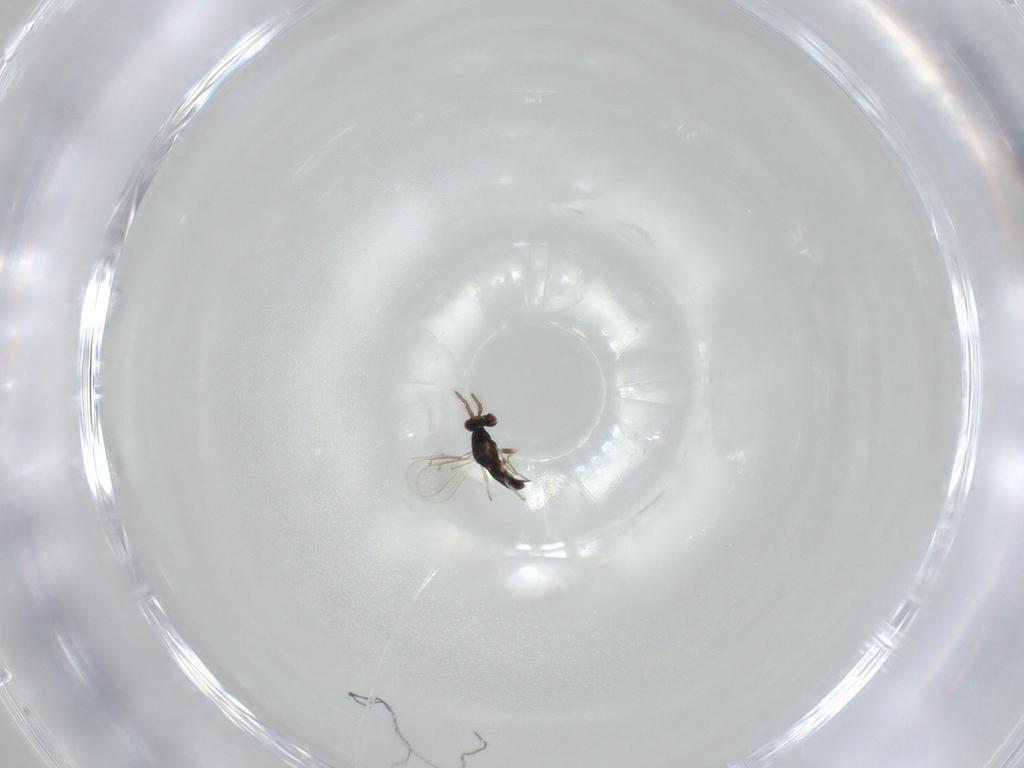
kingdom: Animalia
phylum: Arthropoda
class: Insecta
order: Hymenoptera
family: Eulophidae
